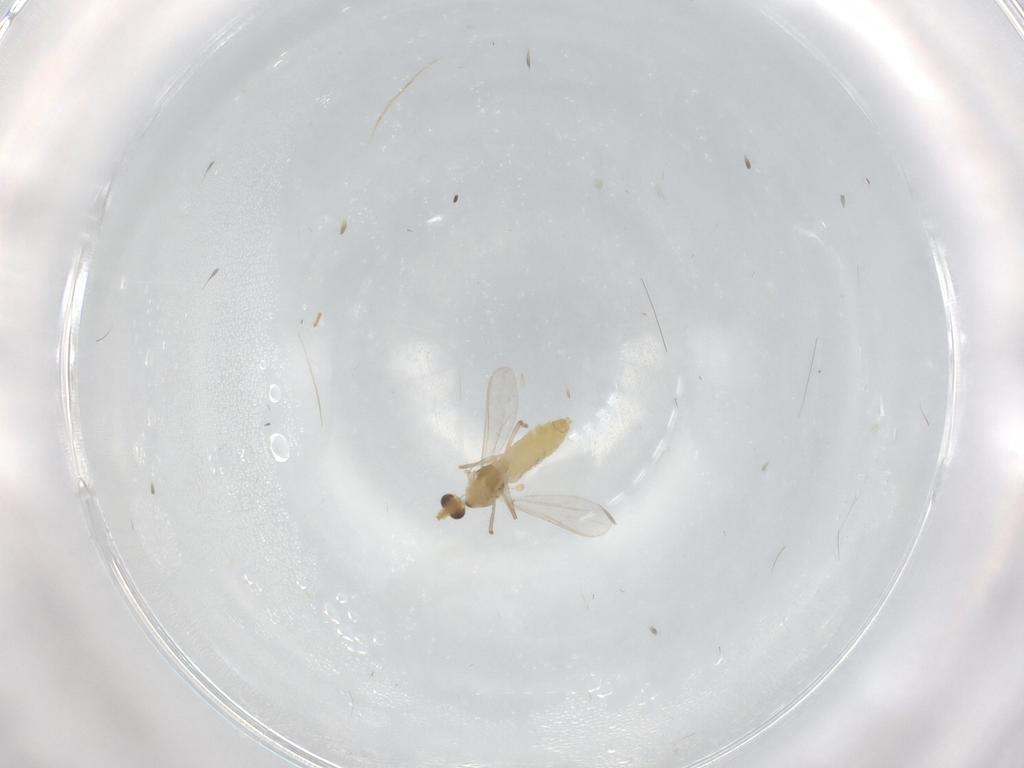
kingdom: Animalia
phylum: Arthropoda
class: Insecta
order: Diptera
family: Chironomidae
